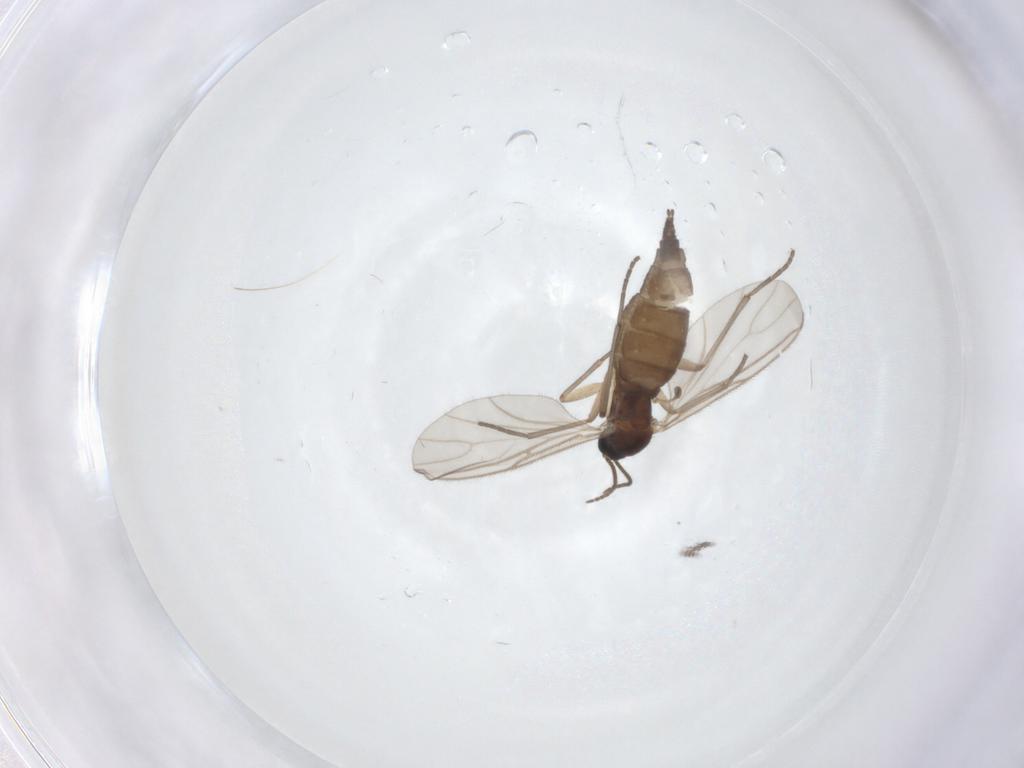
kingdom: Animalia
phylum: Arthropoda
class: Insecta
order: Diptera
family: Sciaridae
